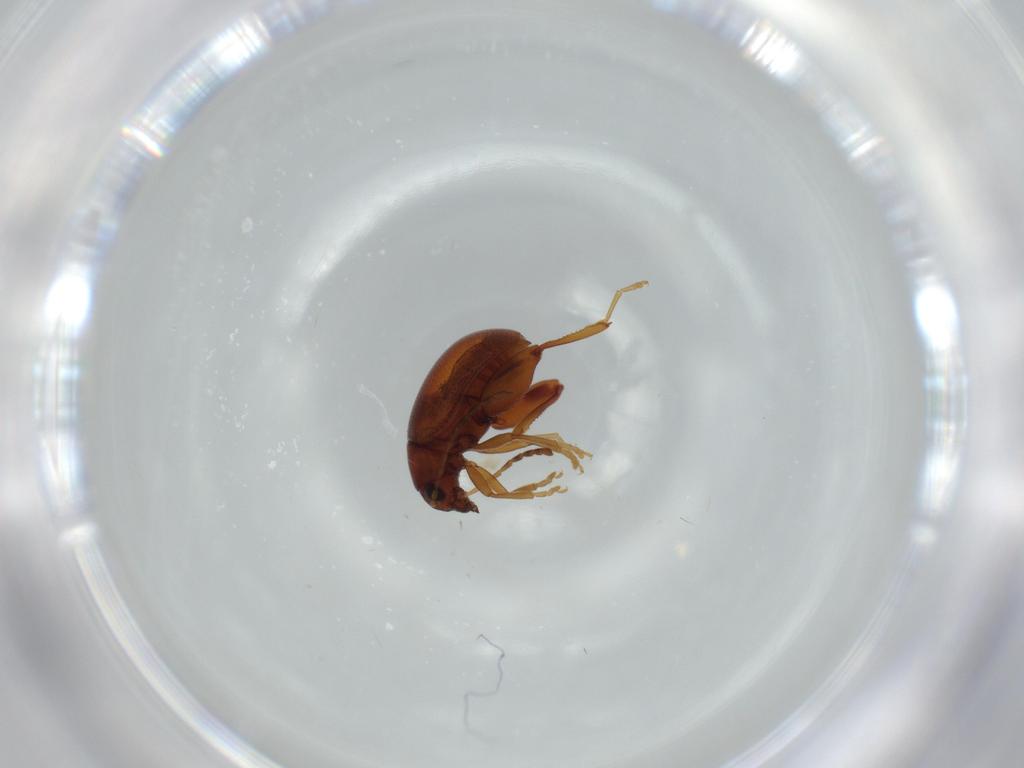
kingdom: Animalia
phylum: Arthropoda
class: Insecta
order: Coleoptera
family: Chrysomelidae
